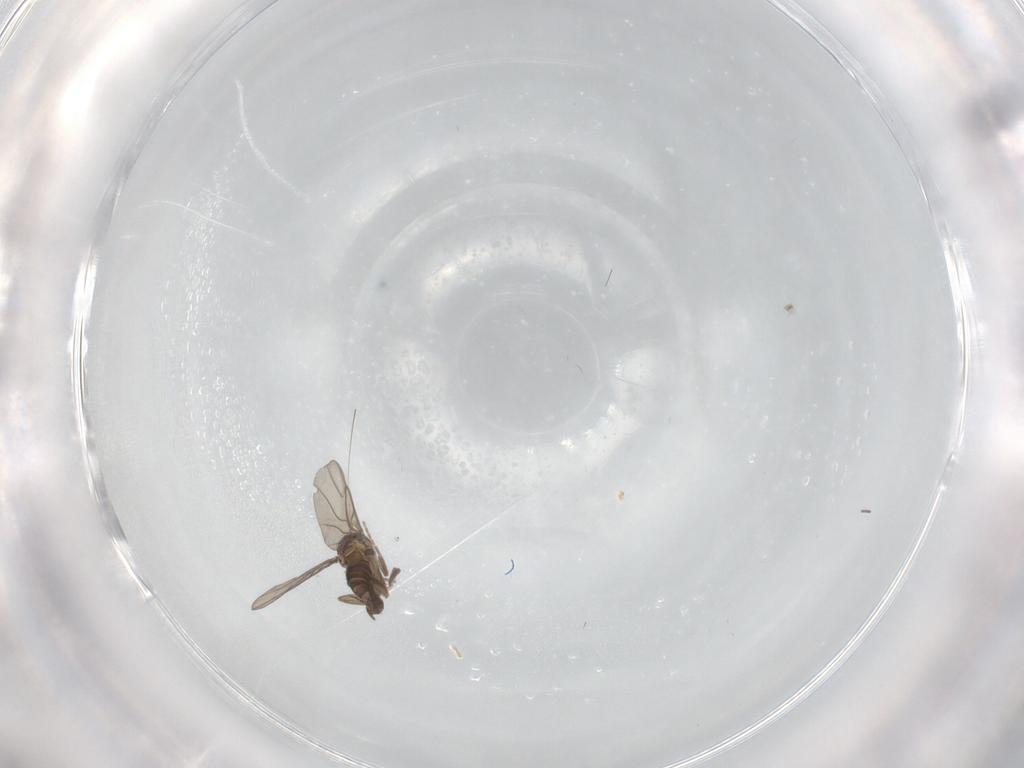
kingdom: Animalia
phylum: Arthropoda
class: Insecta
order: Diptera
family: Phoridae
